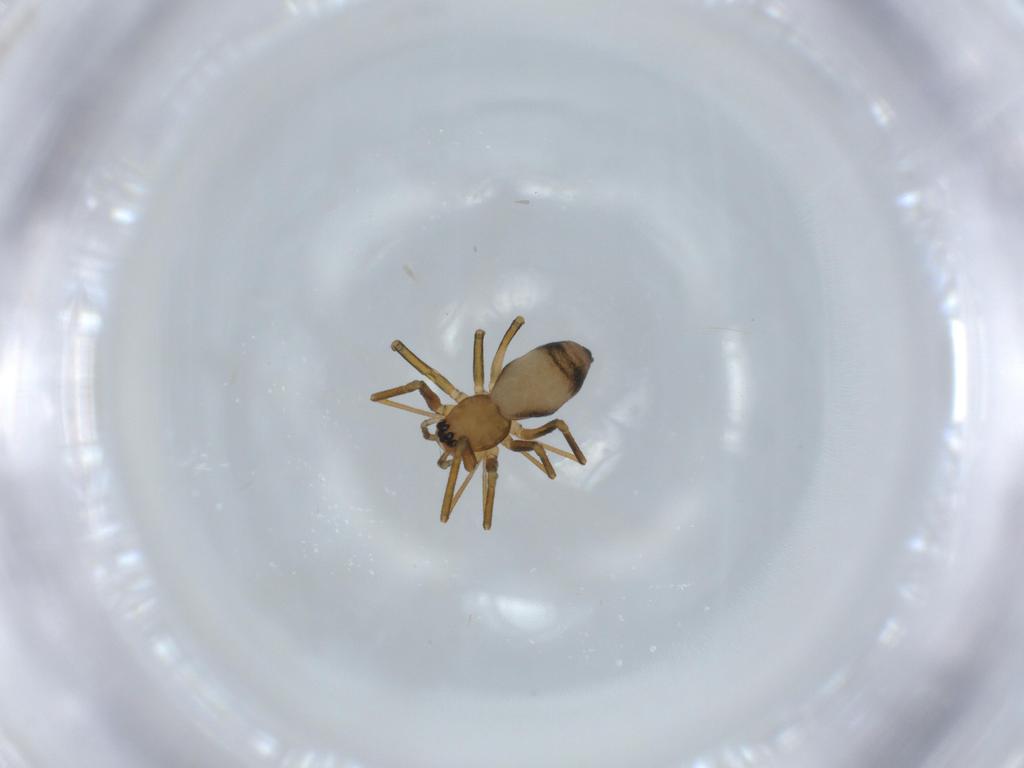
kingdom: Animalia
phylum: Arthropoda
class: Arachnida
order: Araneae
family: Linyphiidae
